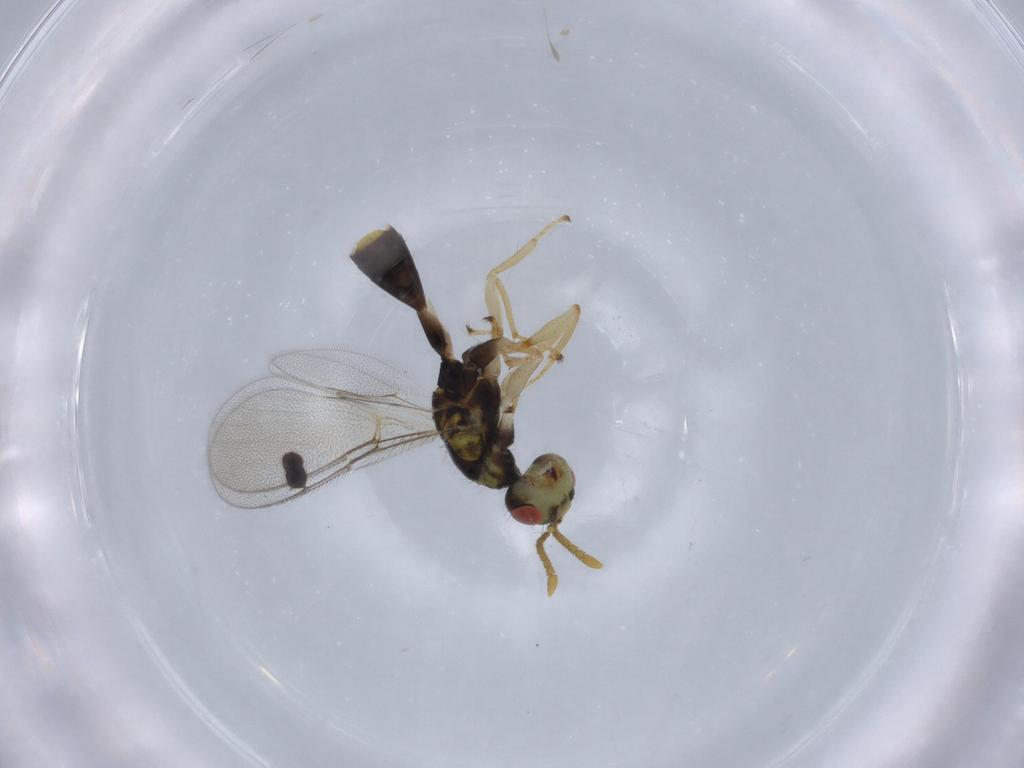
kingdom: Animalia
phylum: Arthropoda
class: Insecta
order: Hymenoptera
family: Megastigmidae
